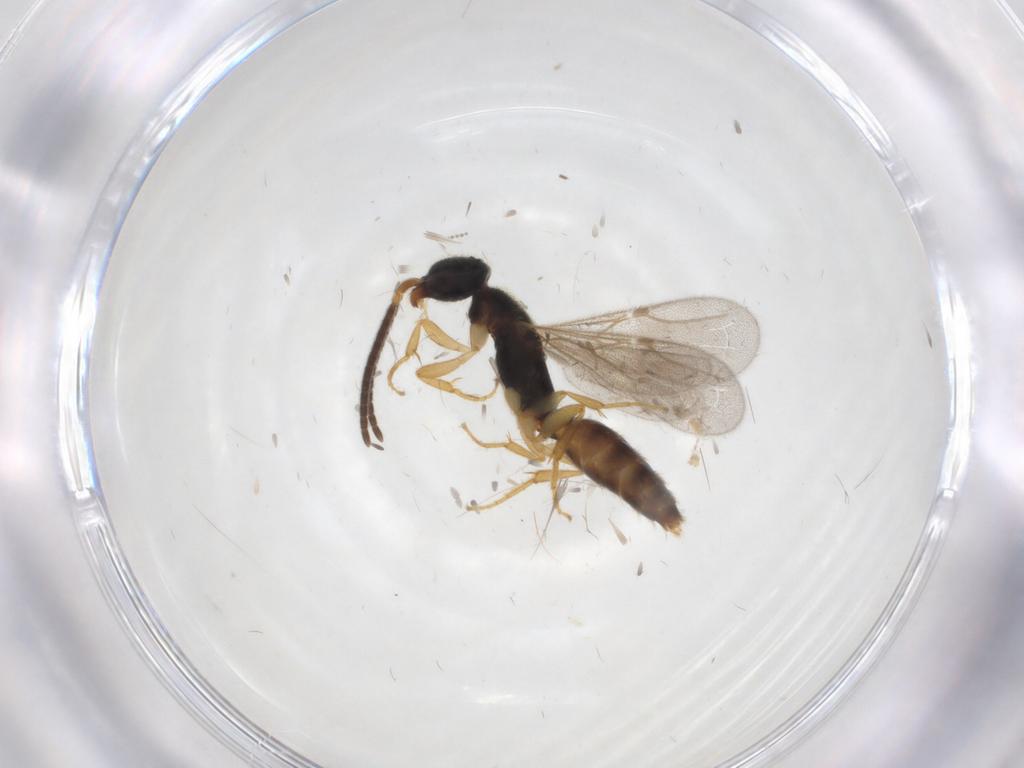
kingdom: Animalia
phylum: Arthropoda
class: Insecta
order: Hymenoptera
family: Bethylidae
